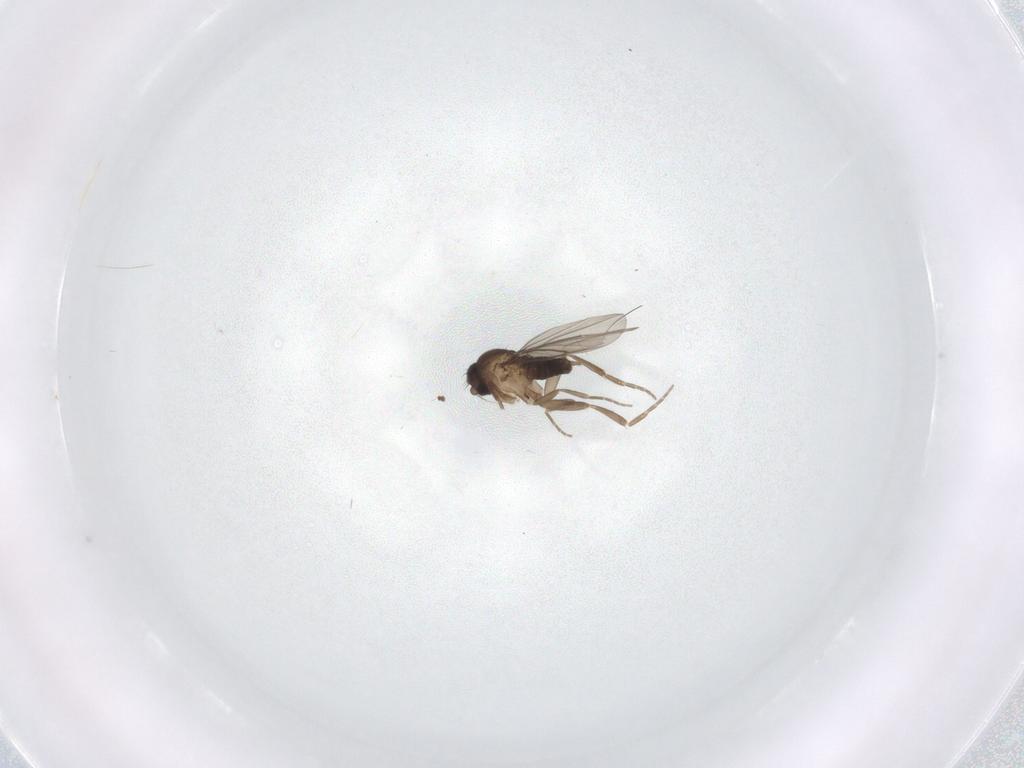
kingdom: Animalia
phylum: Arthropoda
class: Insecta
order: Diptera
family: Phoridae
